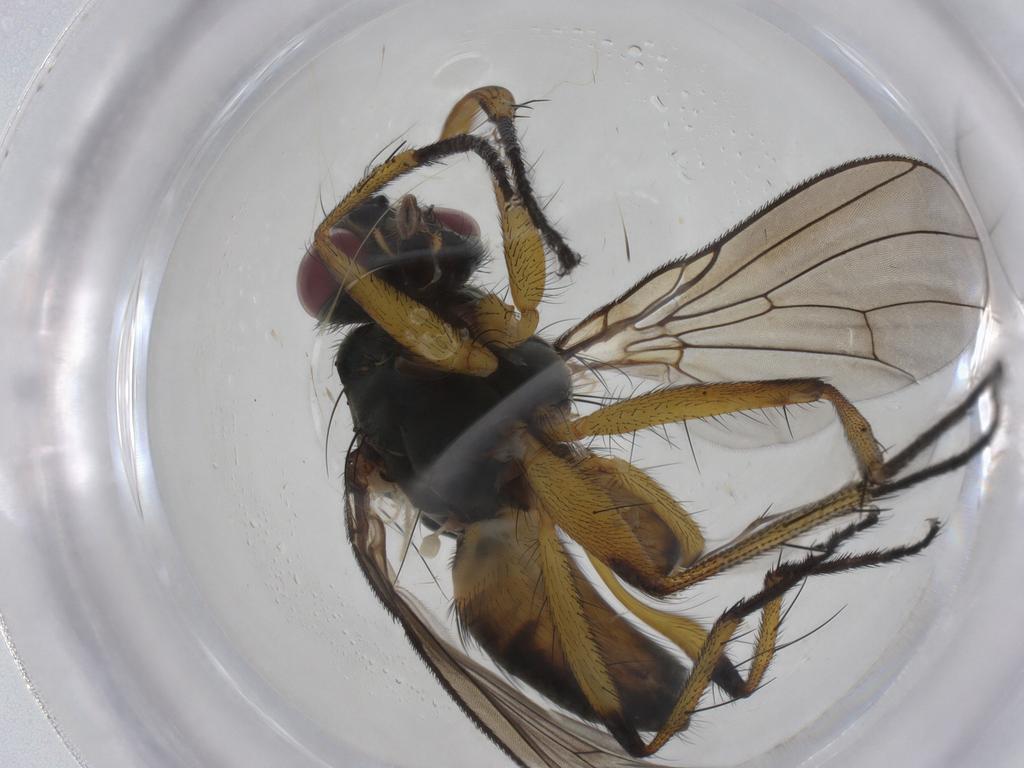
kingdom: Animalia
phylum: Arthropoda
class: Insecta
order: Diptera
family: Muscidae
